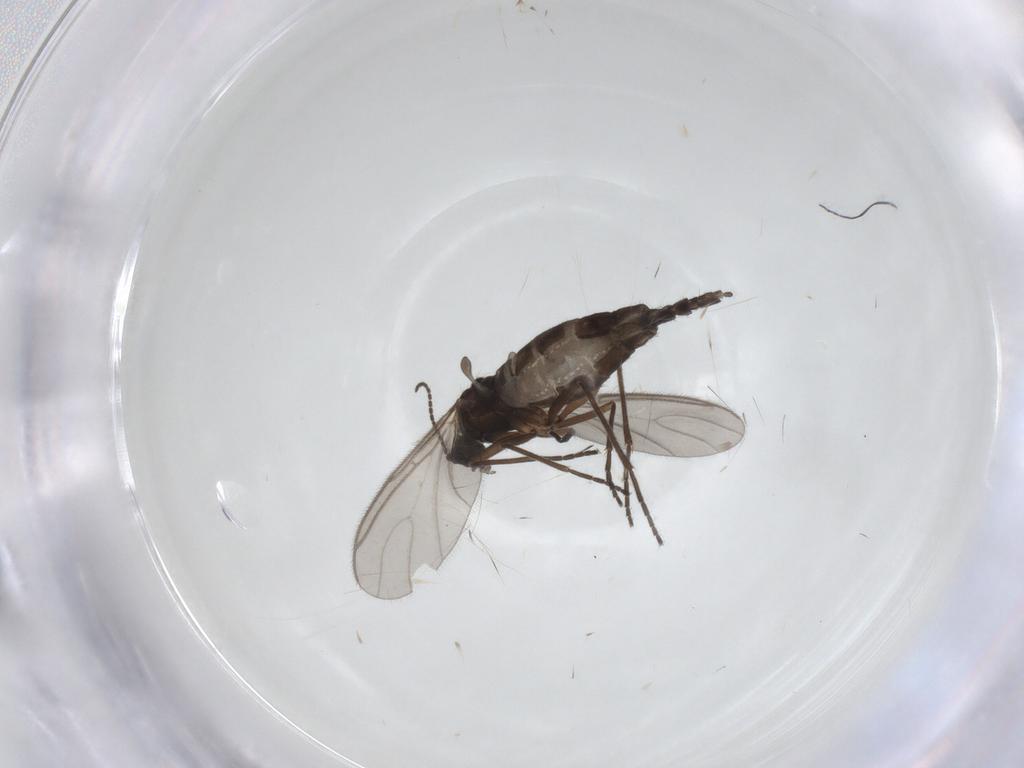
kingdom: Animalia
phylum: Arthropoda
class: Insecta
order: Diptera
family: Sciaridae
